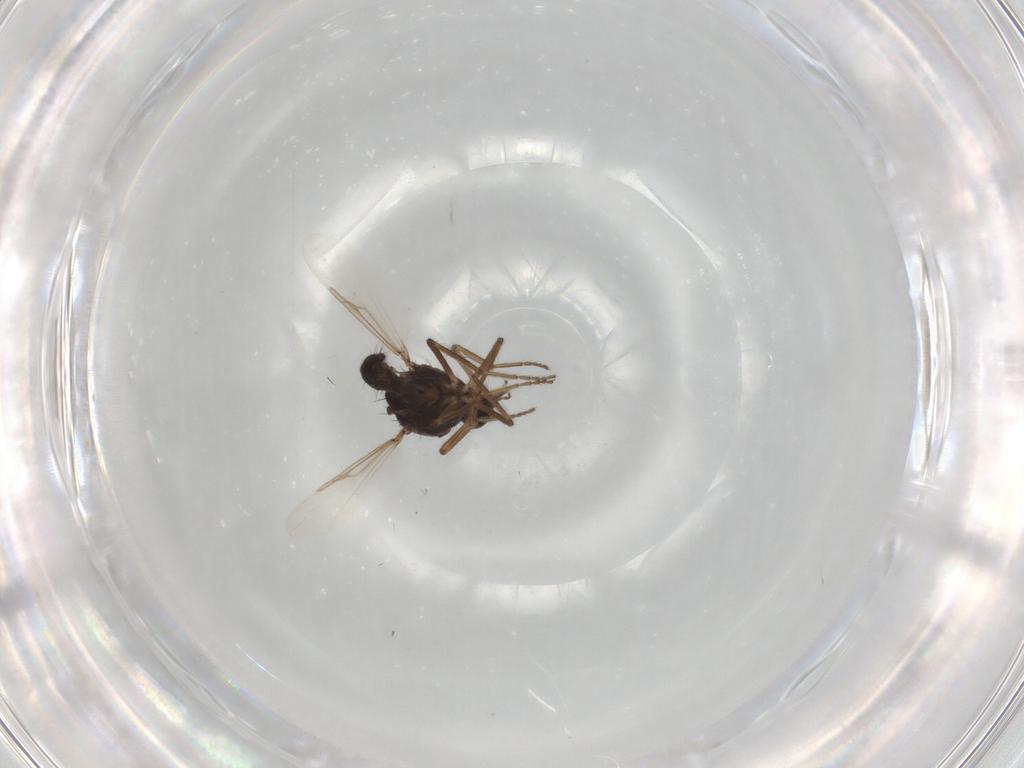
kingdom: Animalia
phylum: Arthropoda
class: Insecta
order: Diptera
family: Ceratopogonidae
